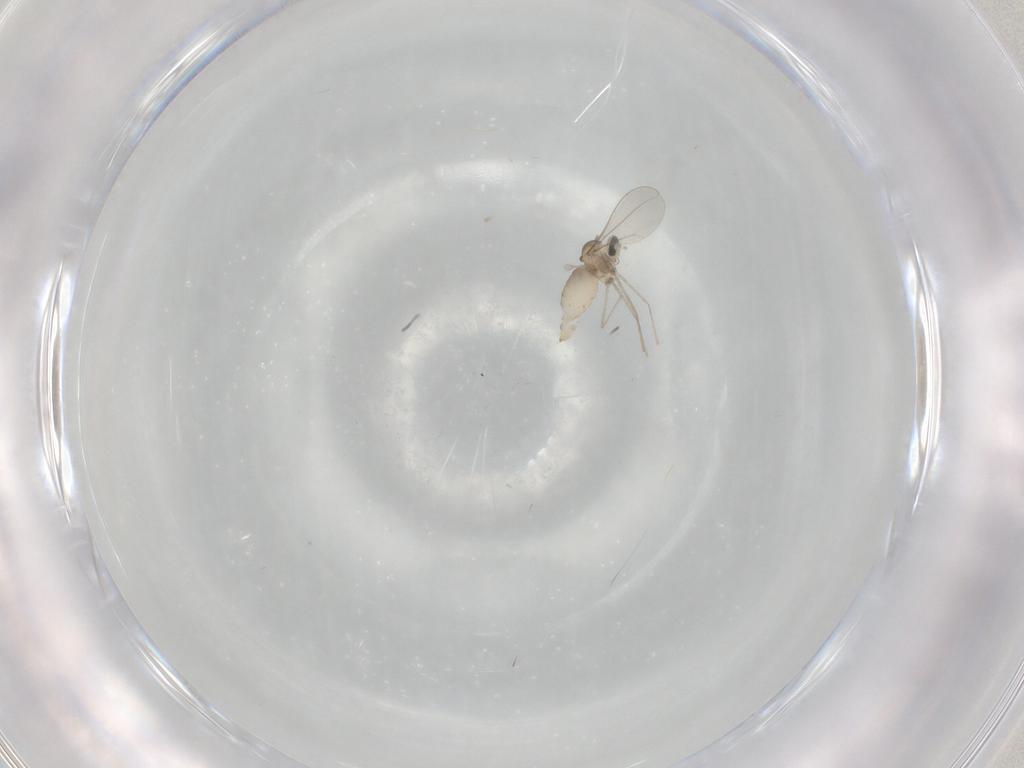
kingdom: Animalia
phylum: Arthropoda
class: Insecta
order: Diptera
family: Cecidomyiidae
